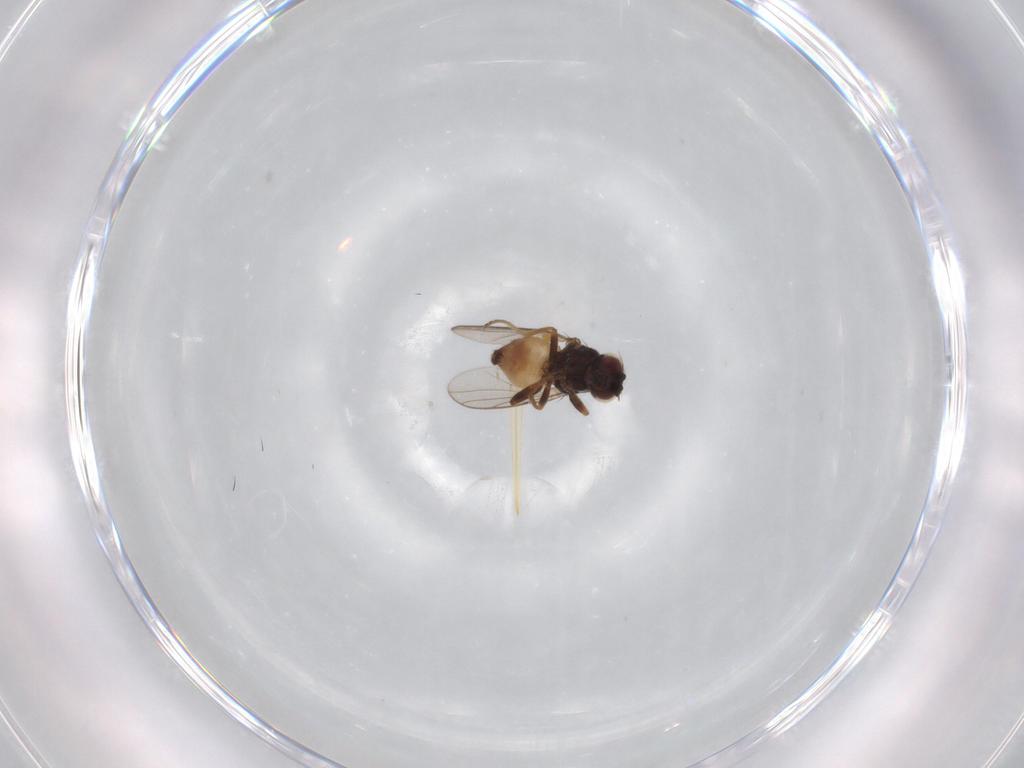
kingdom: Animalia
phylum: Arthropoda
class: Insecta
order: Diptera
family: Chloropidae
